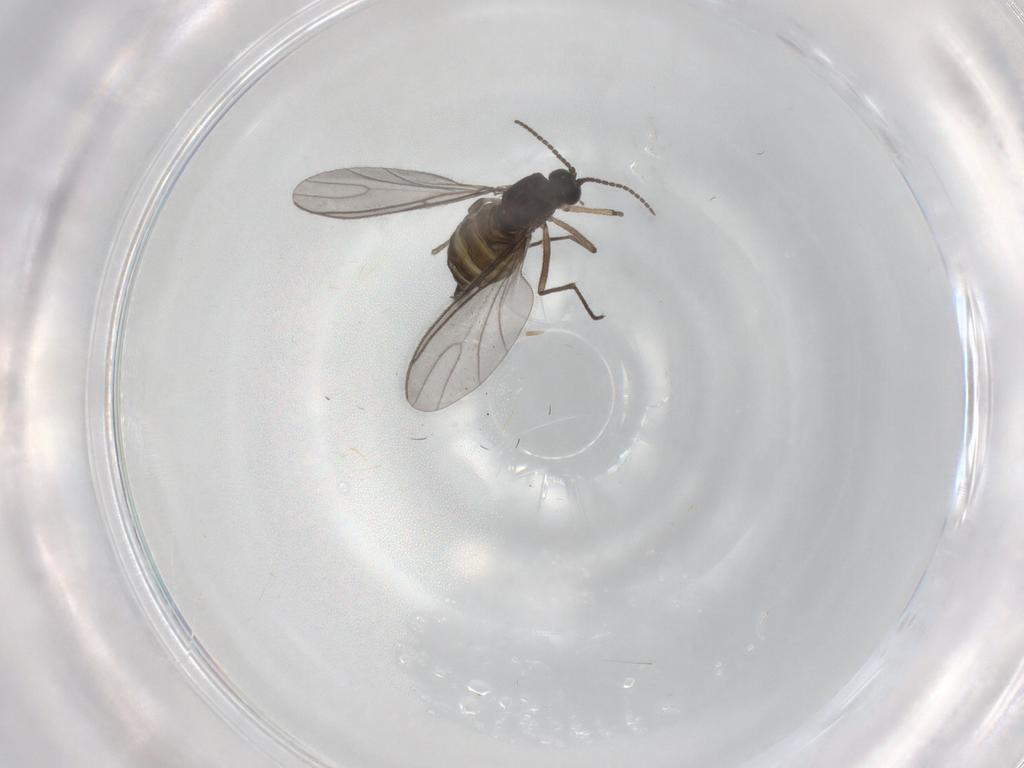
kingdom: Animalia
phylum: Arthropoda
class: Insecta
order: Diptera
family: Sciaridae
